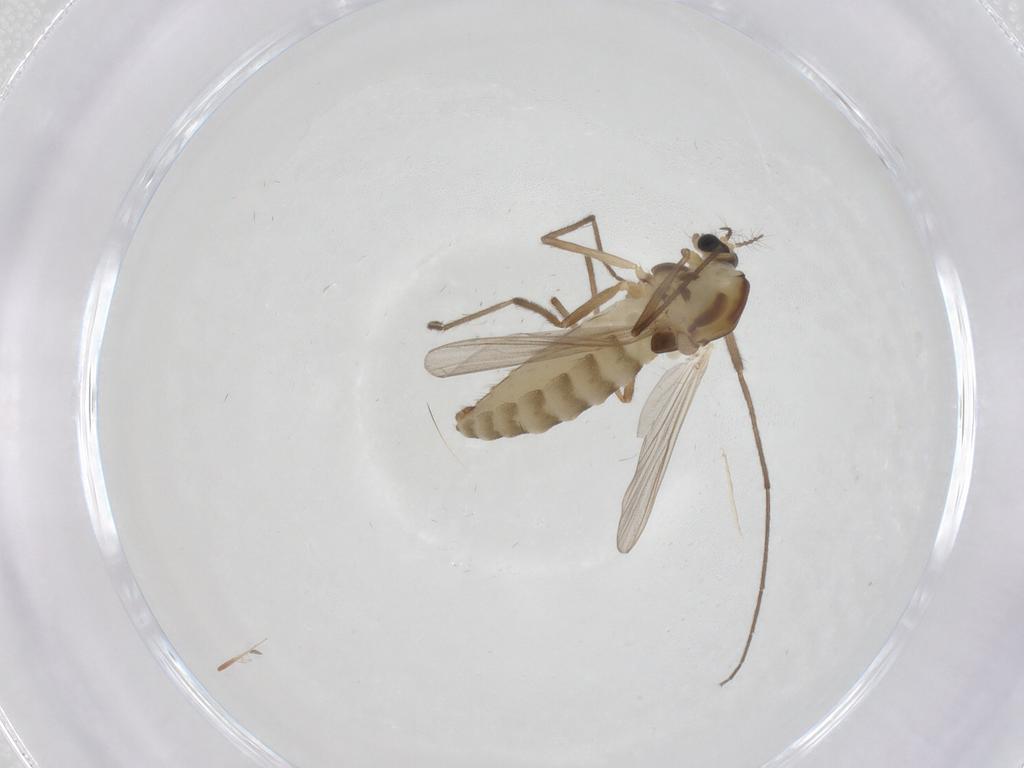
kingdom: Animalia
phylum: Arthropoda
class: Insecta
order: Diptera
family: Chironomidae
